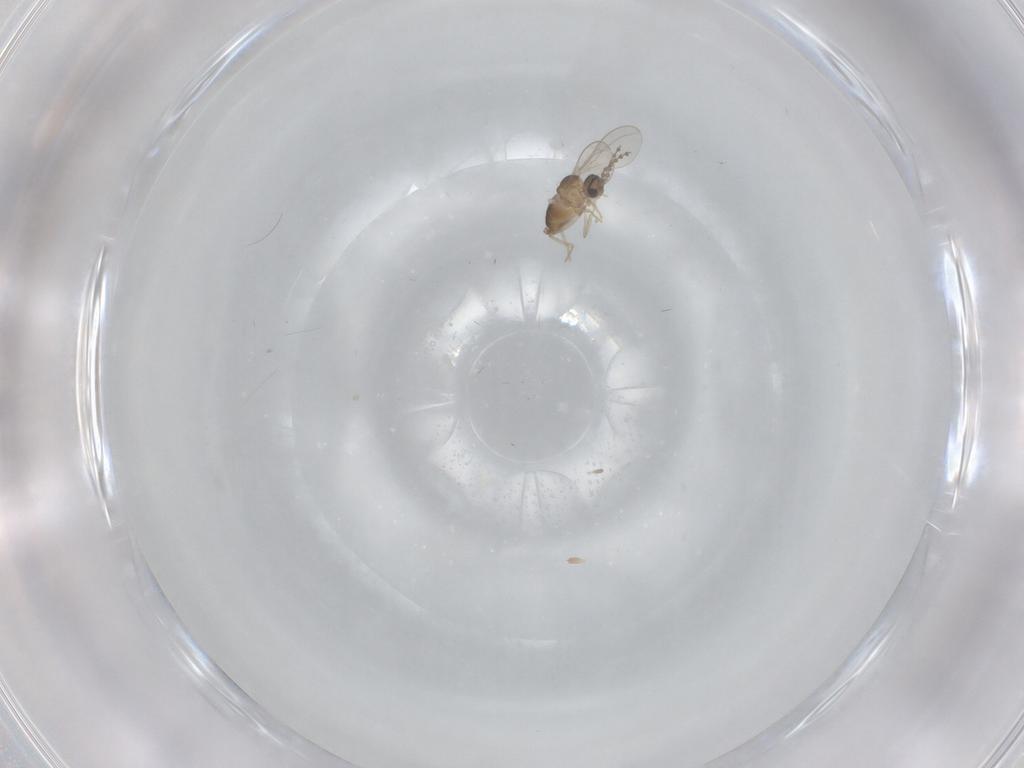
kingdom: Animalia
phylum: Arthropoda
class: Insecta
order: Diptera
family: Cecidomyiidae
